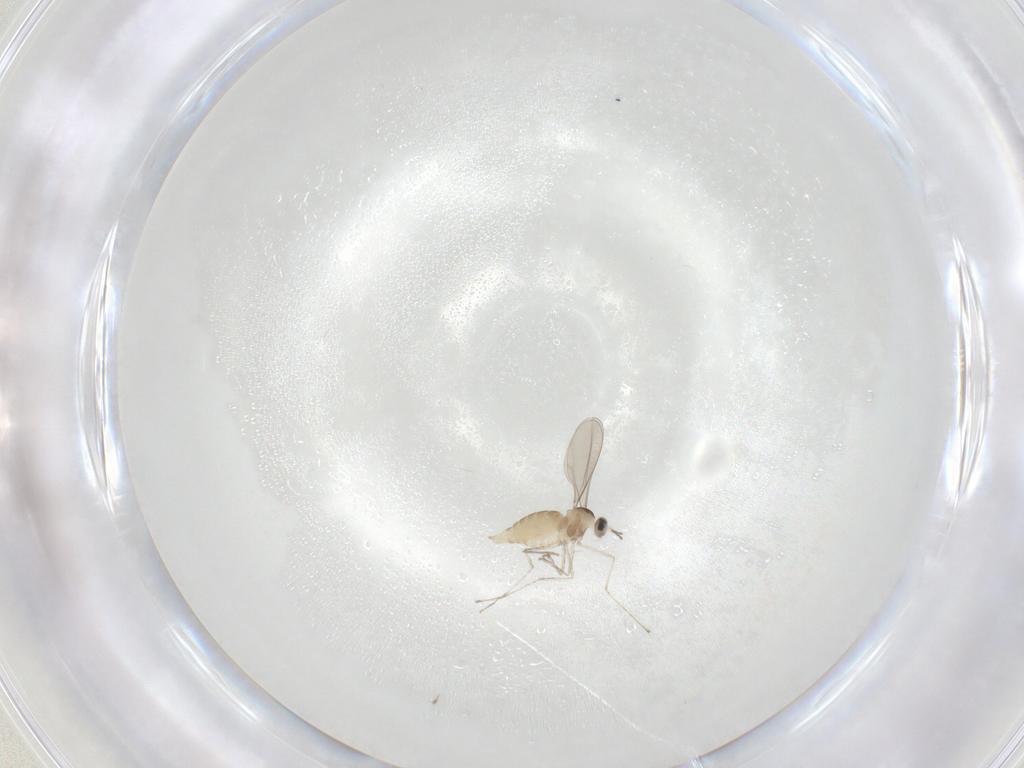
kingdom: Animalia
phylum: Arthropoda
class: Insecta
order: Diptera
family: Cecidomyiidae
